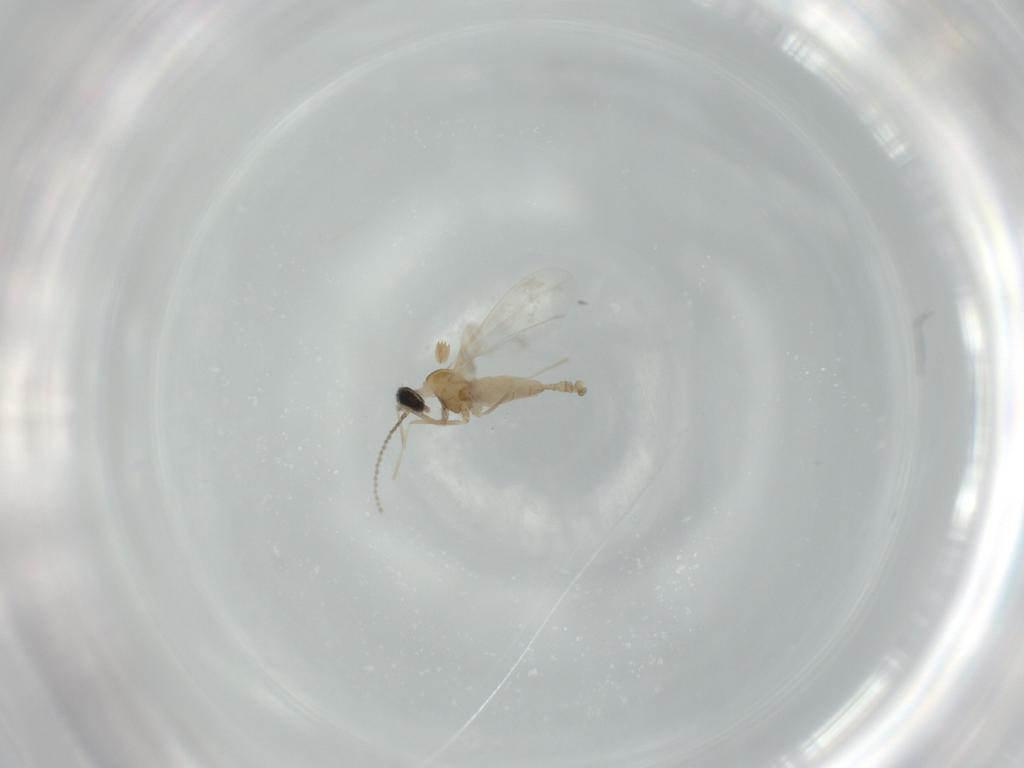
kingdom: Animalia
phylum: Arthropoda
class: Insecta
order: Diptera
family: Cecidomyiidae
